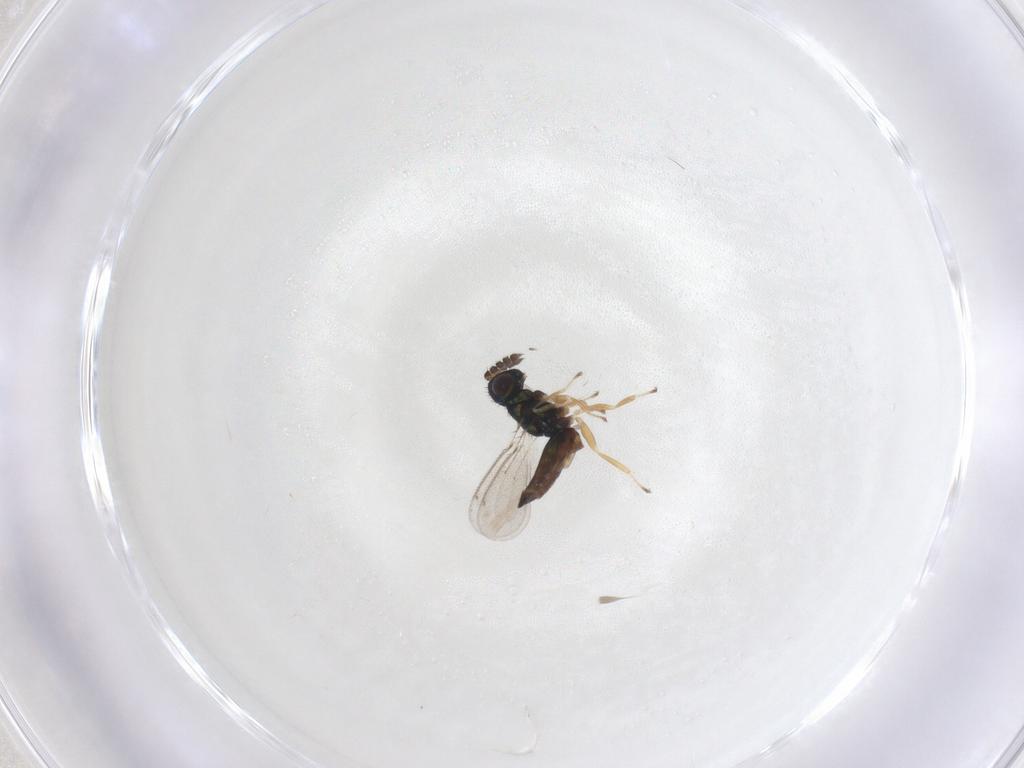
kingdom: Animalia
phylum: Arthropoda
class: Insecta
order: Hymenoptera
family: Eulophidae
